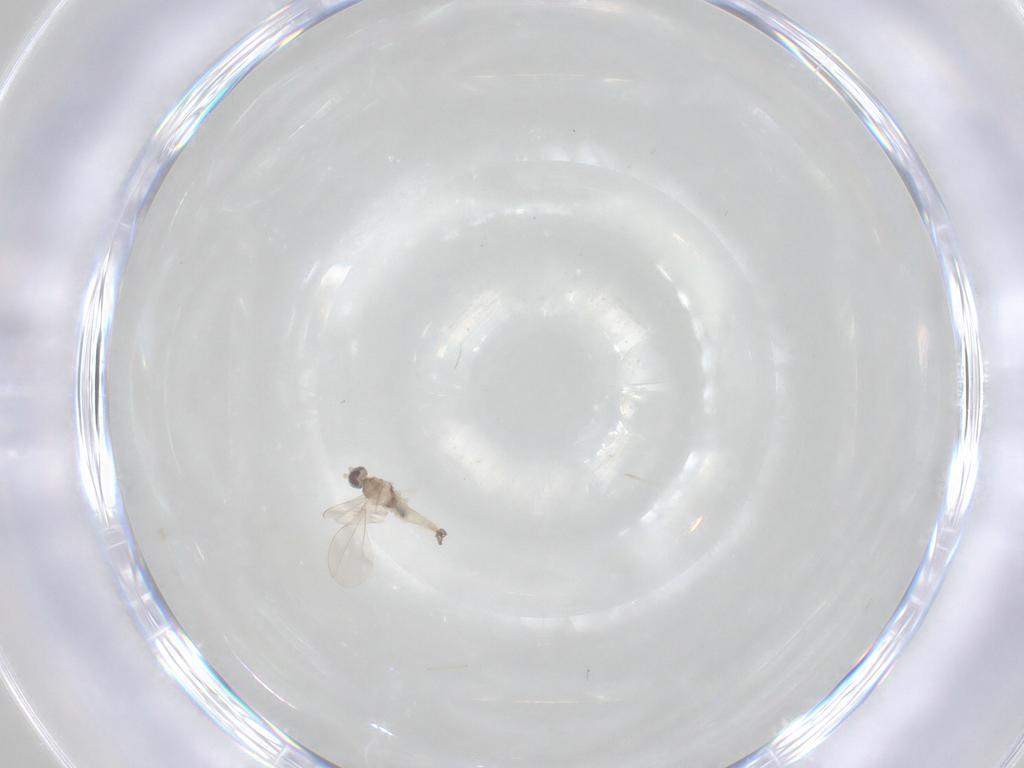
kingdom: Animalia
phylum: Arthropoda
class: Insecta
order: Diptera
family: Cecidomyiidae
